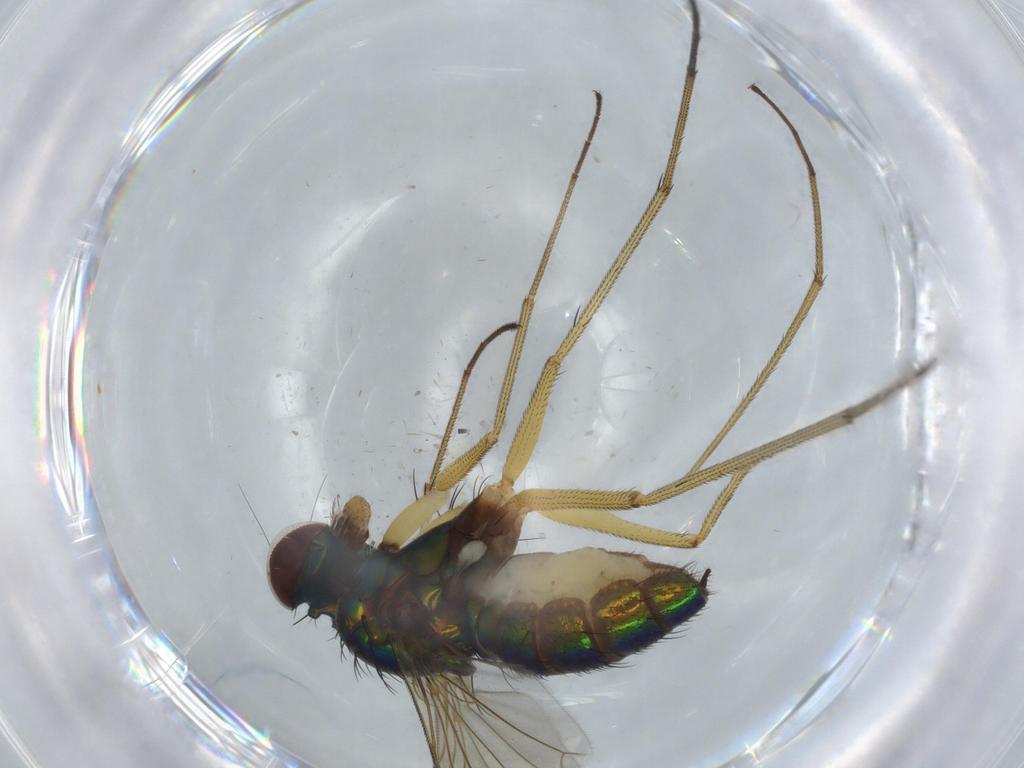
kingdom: Animalia
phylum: Arthropoda
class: Insecta
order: Diptera
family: Dolichopodidae
